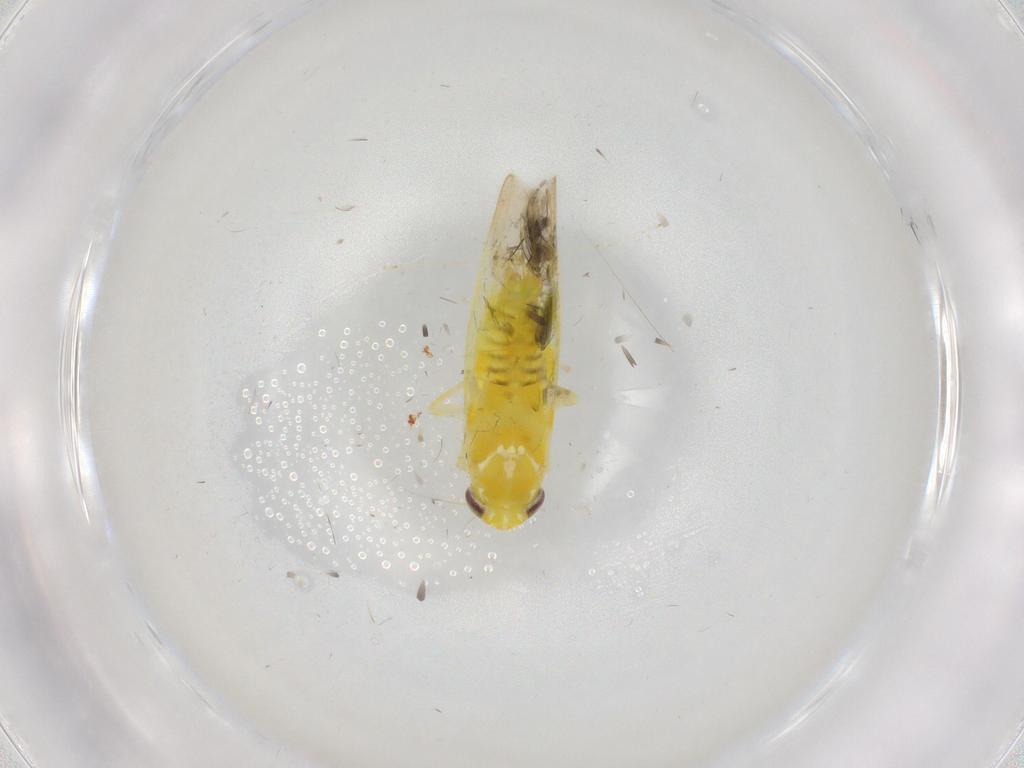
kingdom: Animalia
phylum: Arthropoda
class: Insecta
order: Hemiptera
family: Cicadellidae
